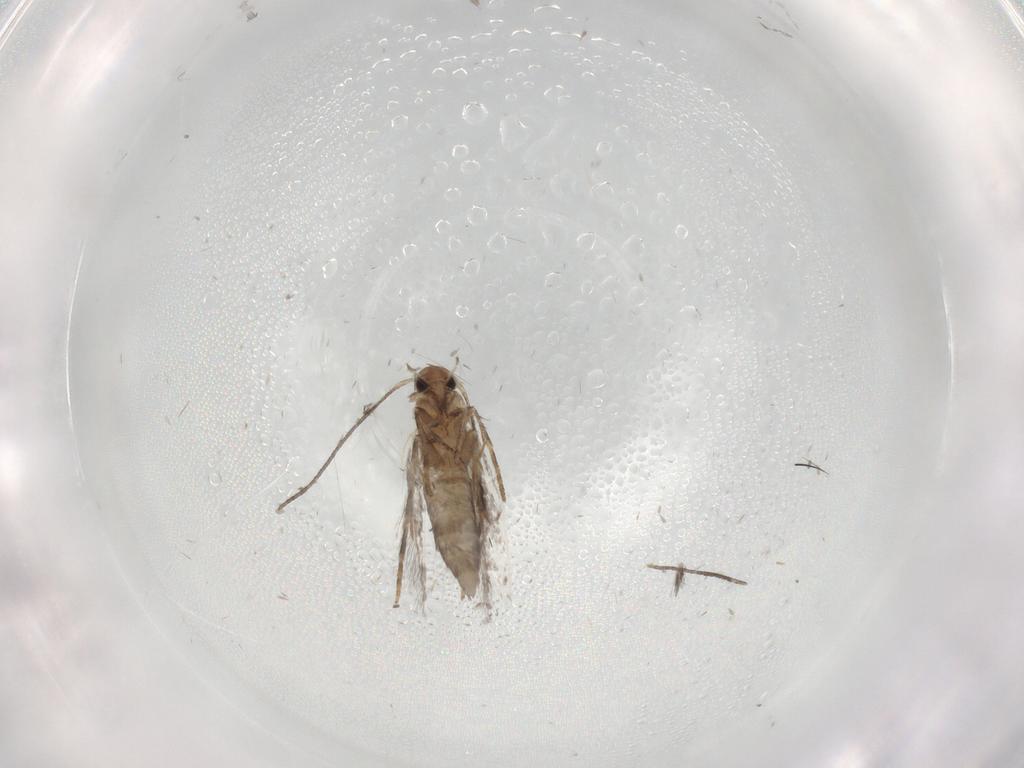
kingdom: Animalia
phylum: Arthropoda
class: Insecta
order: Lepidoptera
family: Elachistidae
